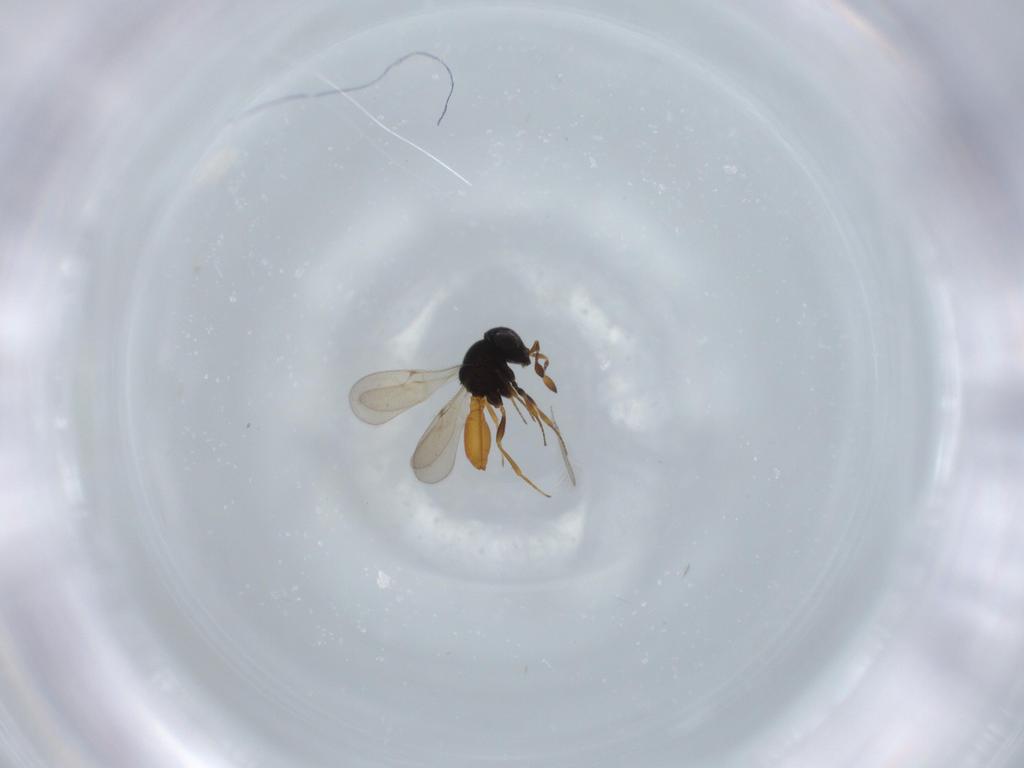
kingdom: Animalia
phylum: Arthropoda
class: Insecta
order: Hymenoptera
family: Scelionidae
